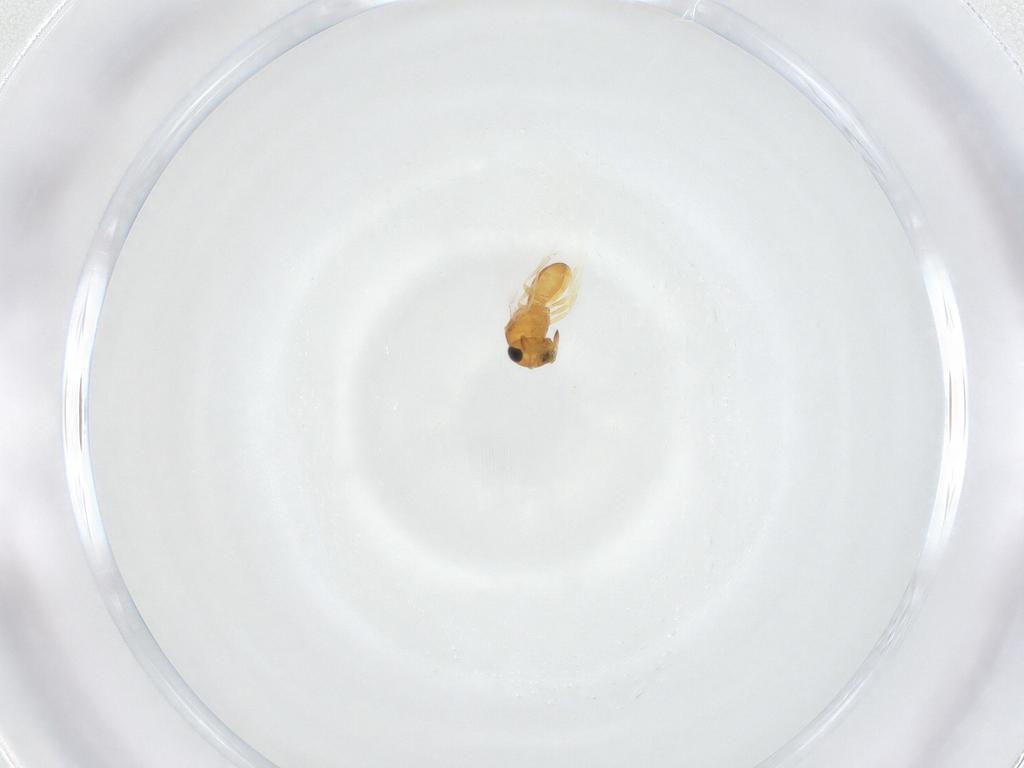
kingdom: Animalia
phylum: Arthropoda
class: Insecta
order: Hymenoptera
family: Scelionidae
